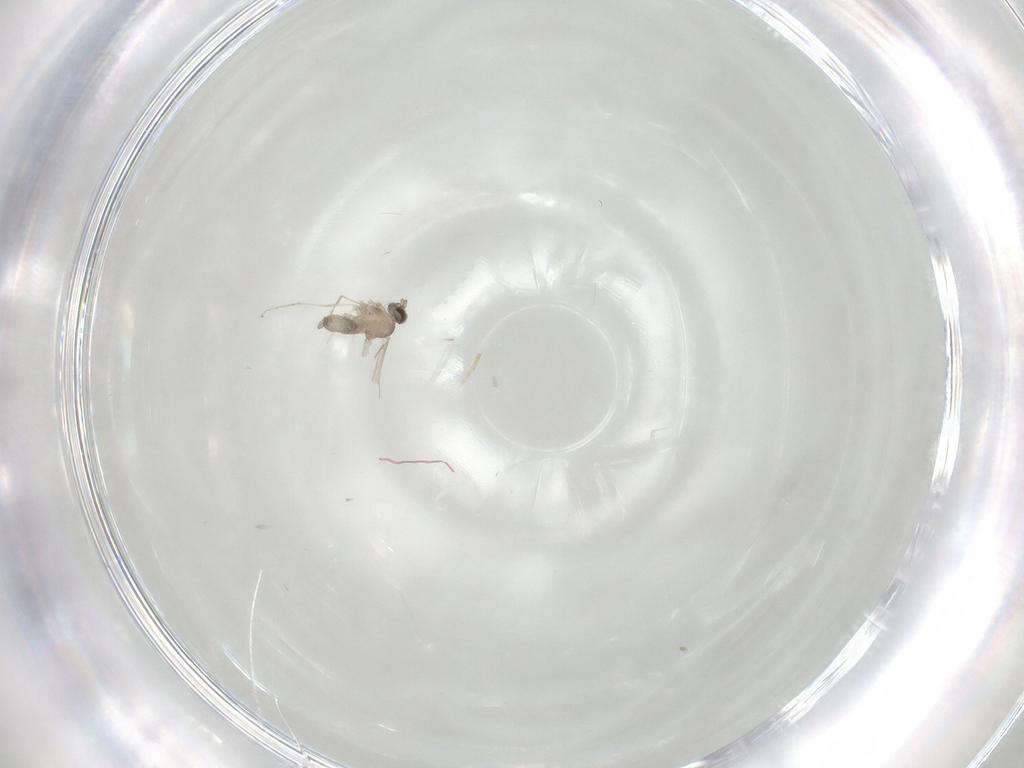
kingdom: Animalia
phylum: Arthropoda
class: Insecta
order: Diptera
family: Cecidomyiidae
